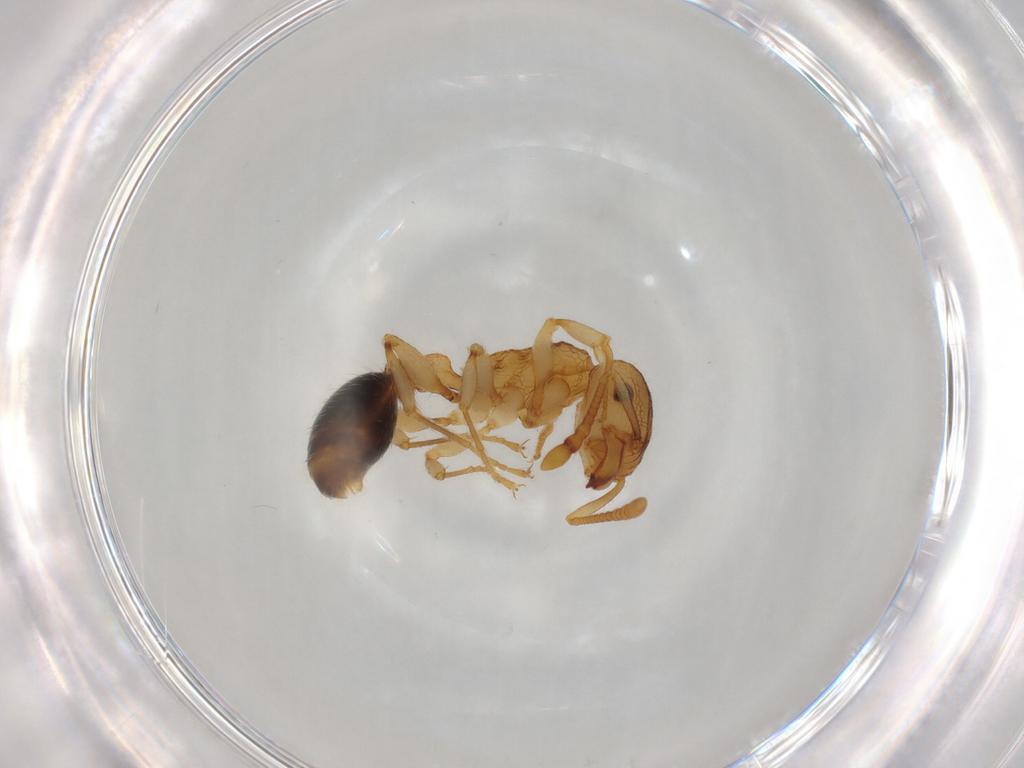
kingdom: Animalia
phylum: Arthropoda
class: Insecta
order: Hymenoptera
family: Formicidae
